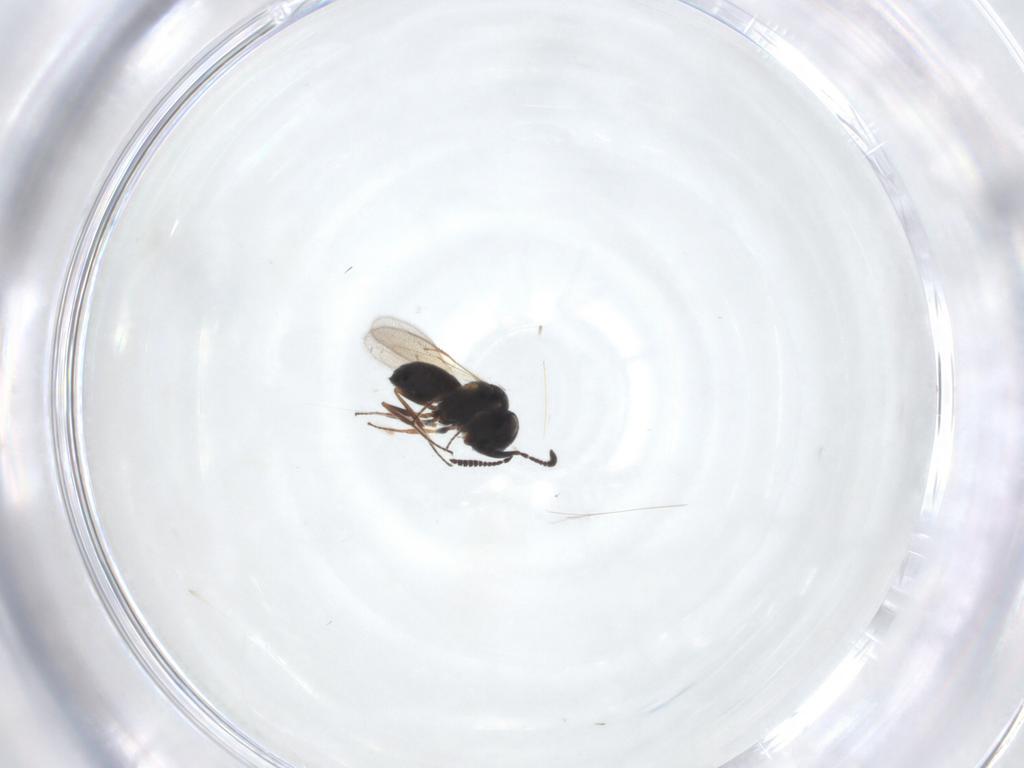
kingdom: Animalia
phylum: Arthropoda
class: Insecta
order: Hymenoptera
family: Scelionidae
